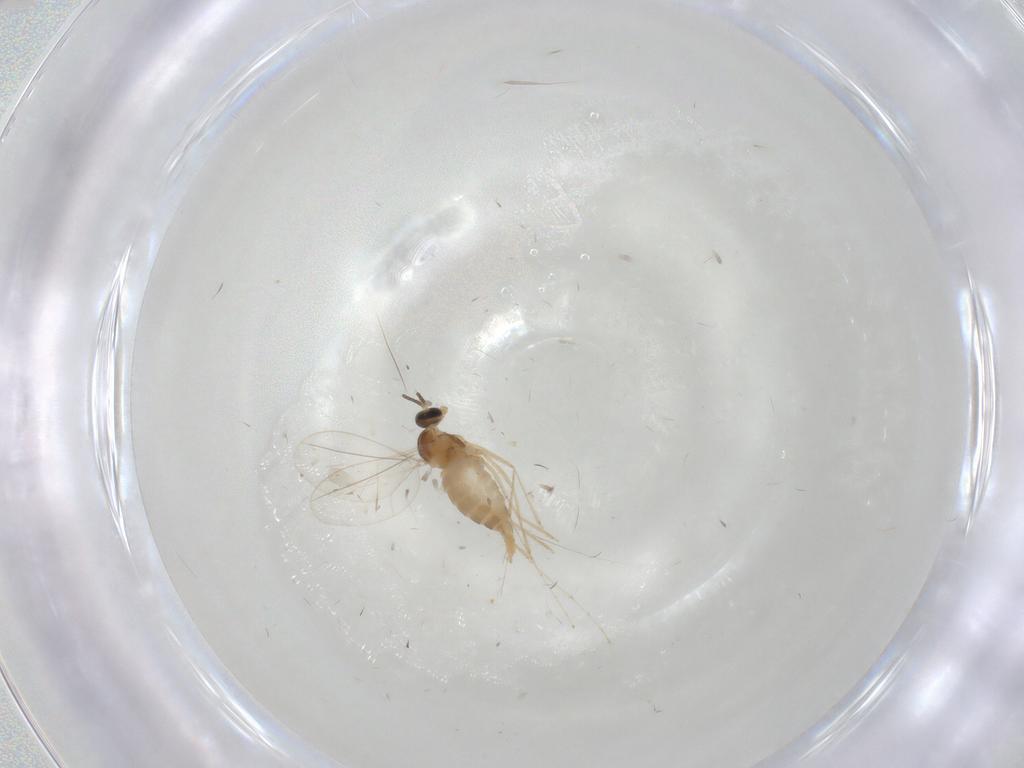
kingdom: Animalia
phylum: Arthropoda
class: Insecta
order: Diptera
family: Cecidomyiidae
